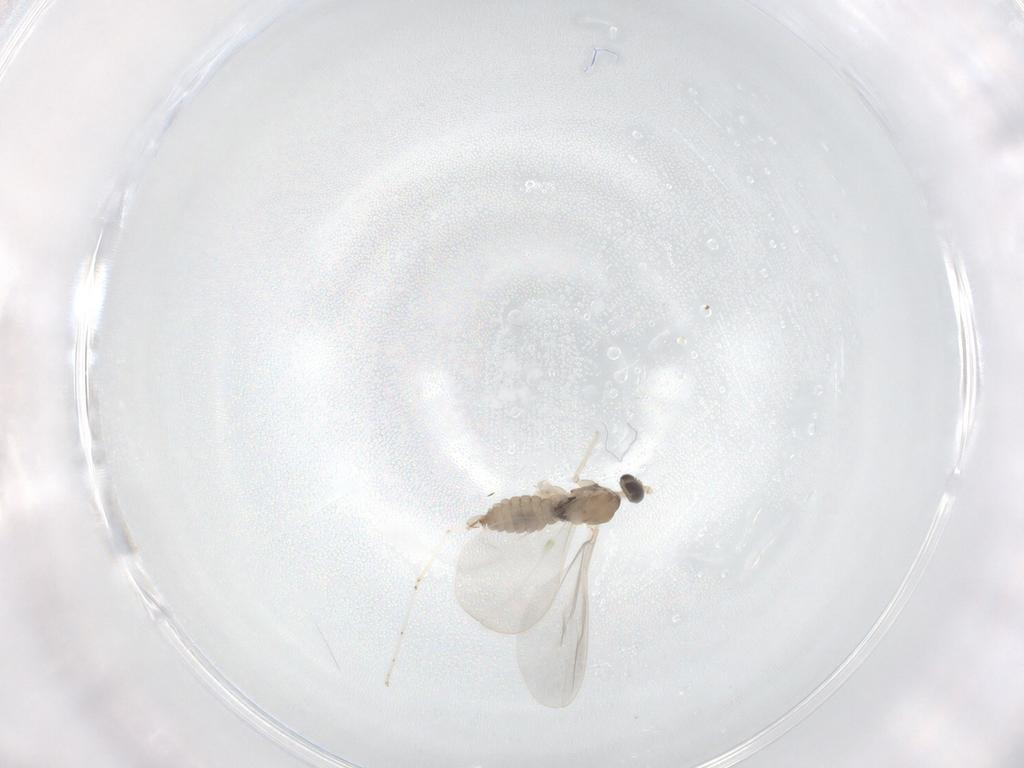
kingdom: Animalia
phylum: Arthropoda
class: Insecta
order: Diptera
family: Cecidomyiidae
